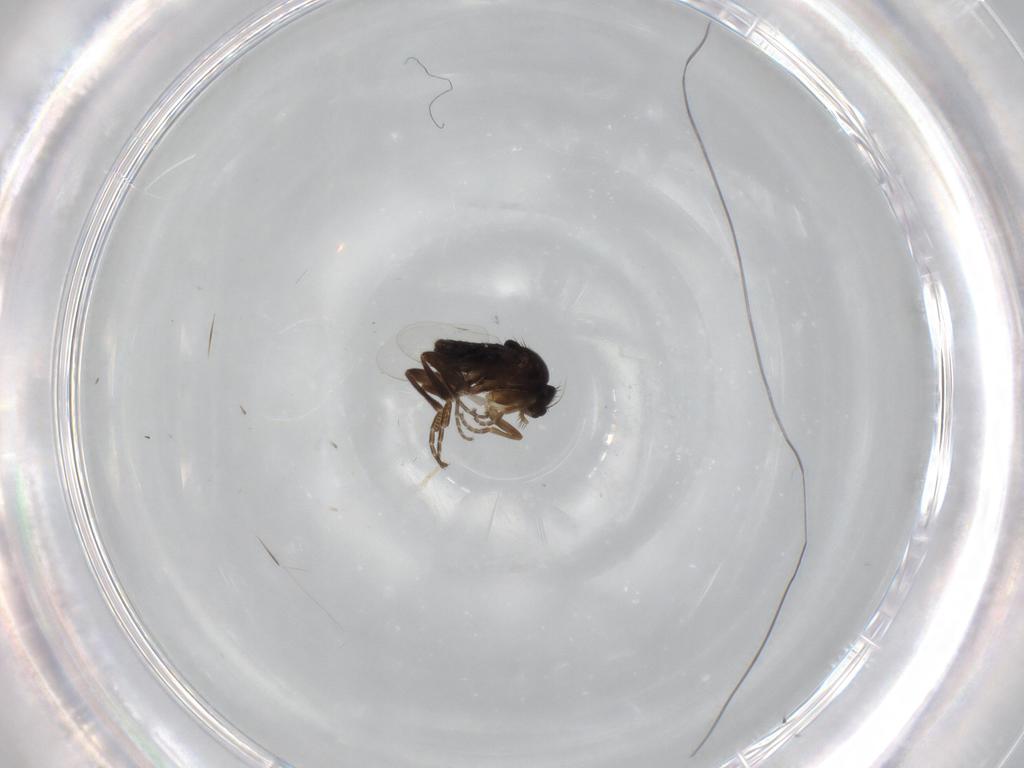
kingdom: Animalia
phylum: Arthropoda
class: Insecta
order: Diptera
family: Phoridae
